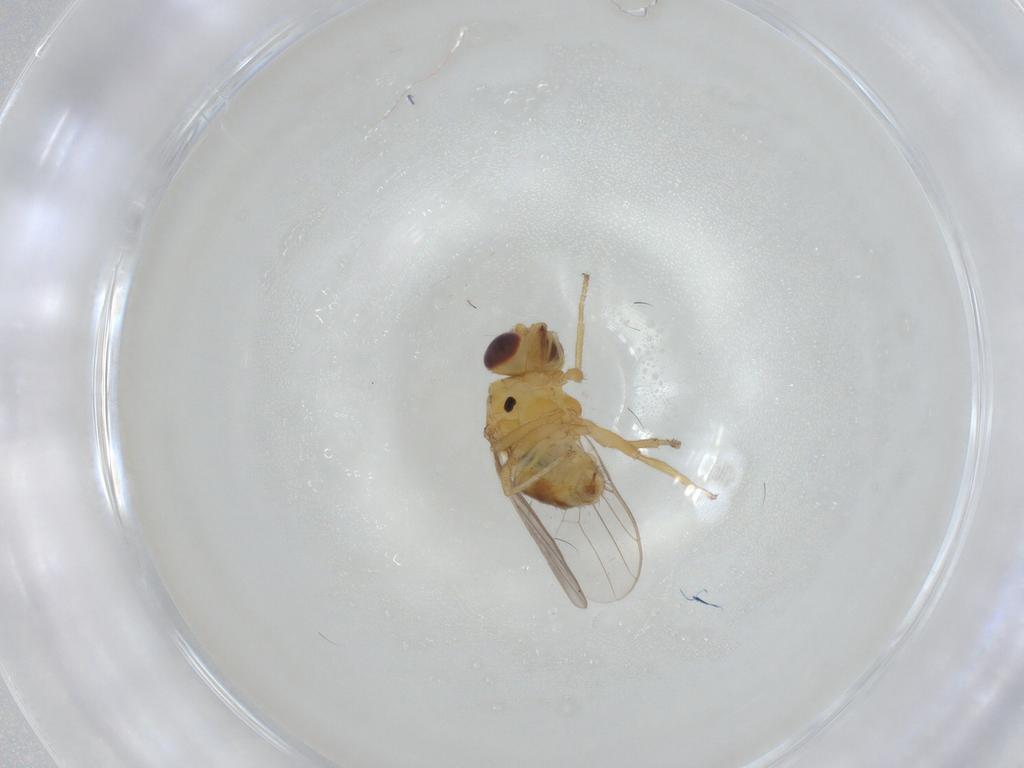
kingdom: Animalia
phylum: Arthropoda
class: Insecta
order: Diptera
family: Chloropidae
